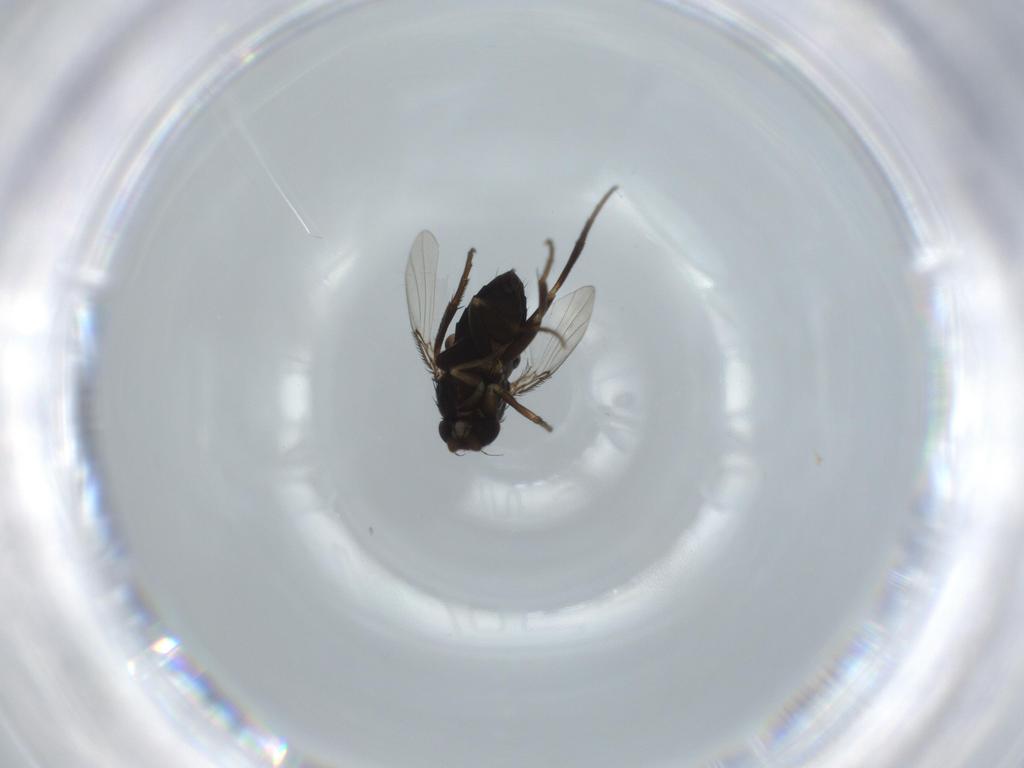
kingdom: Animalia
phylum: Arthropoda
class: Insecta
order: Diptera
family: Phoridae
